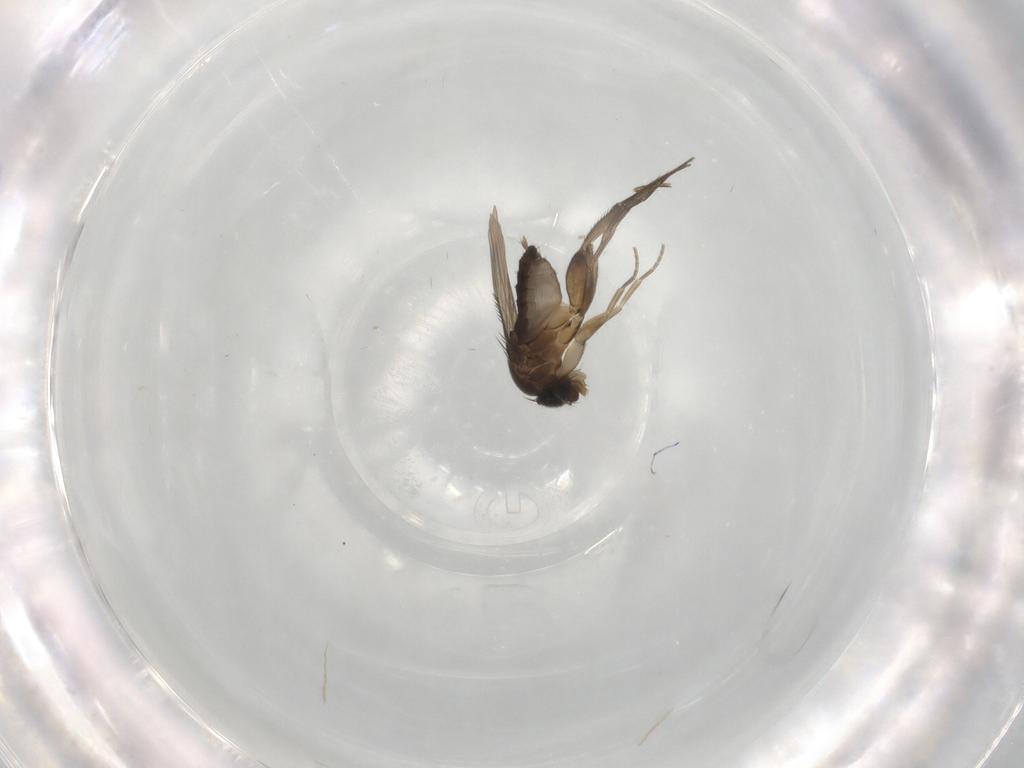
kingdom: Animalia
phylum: Arthropoda
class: Insecta
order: Diptera
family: Phoridae
